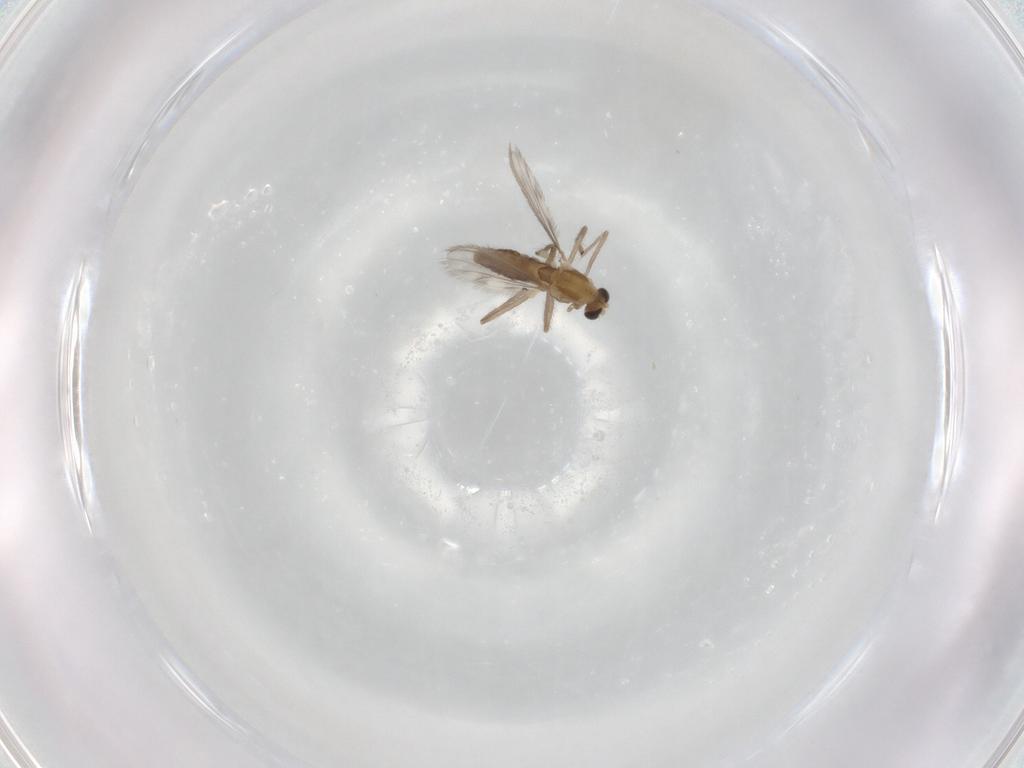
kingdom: Animalia
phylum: Arthropoda
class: Insecta
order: Diptera
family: Chironomidae
